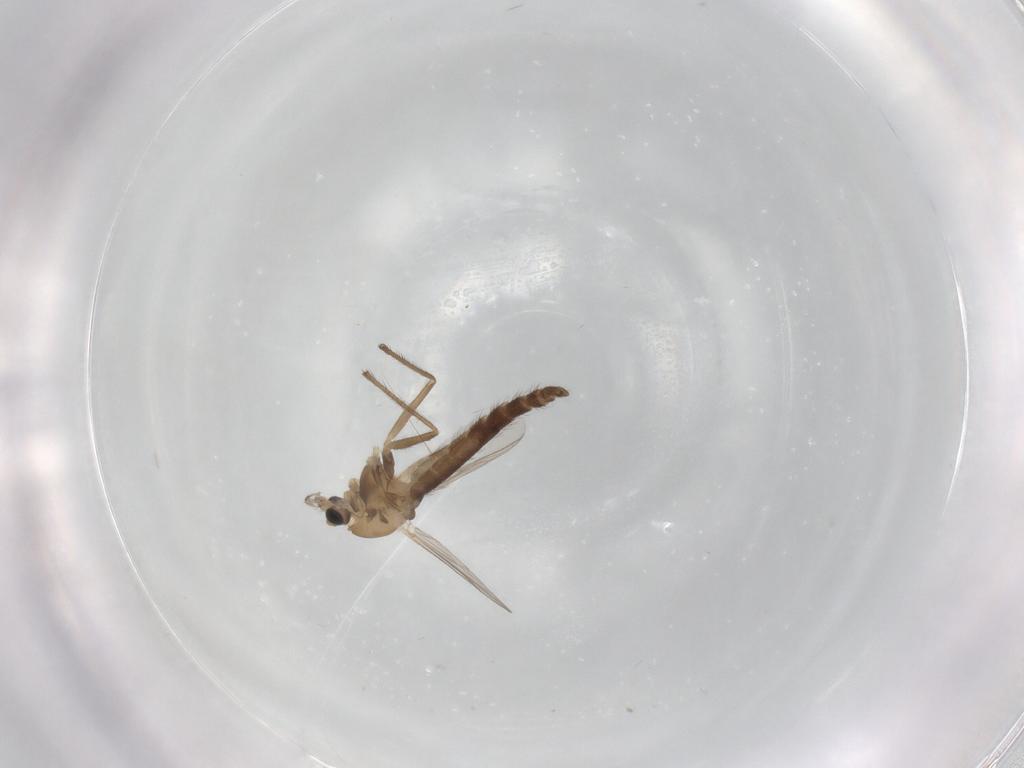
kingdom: Animalia
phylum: Arthropoda
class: Insecta
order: Diptera
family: Chironomidae
